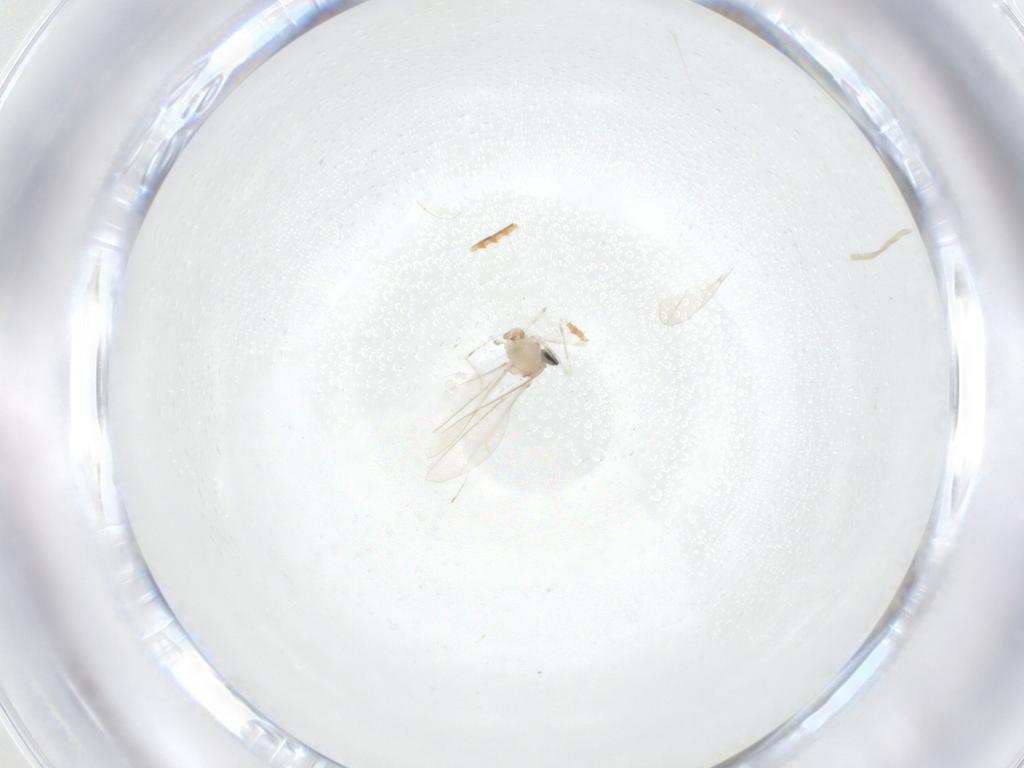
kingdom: Animalia
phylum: Arthropoda
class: Insecta
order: Diptera
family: Cecidomyiidae
